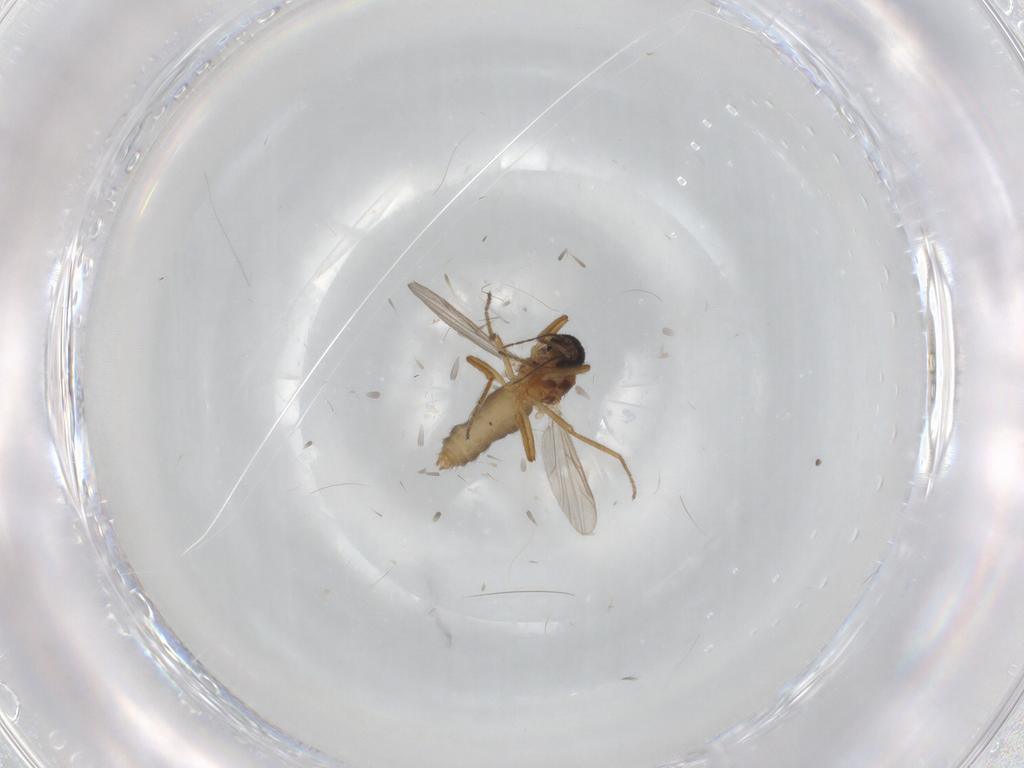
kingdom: Animalia
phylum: Arthropoda
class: Insecta
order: Diptera
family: Ceratopogonidae
